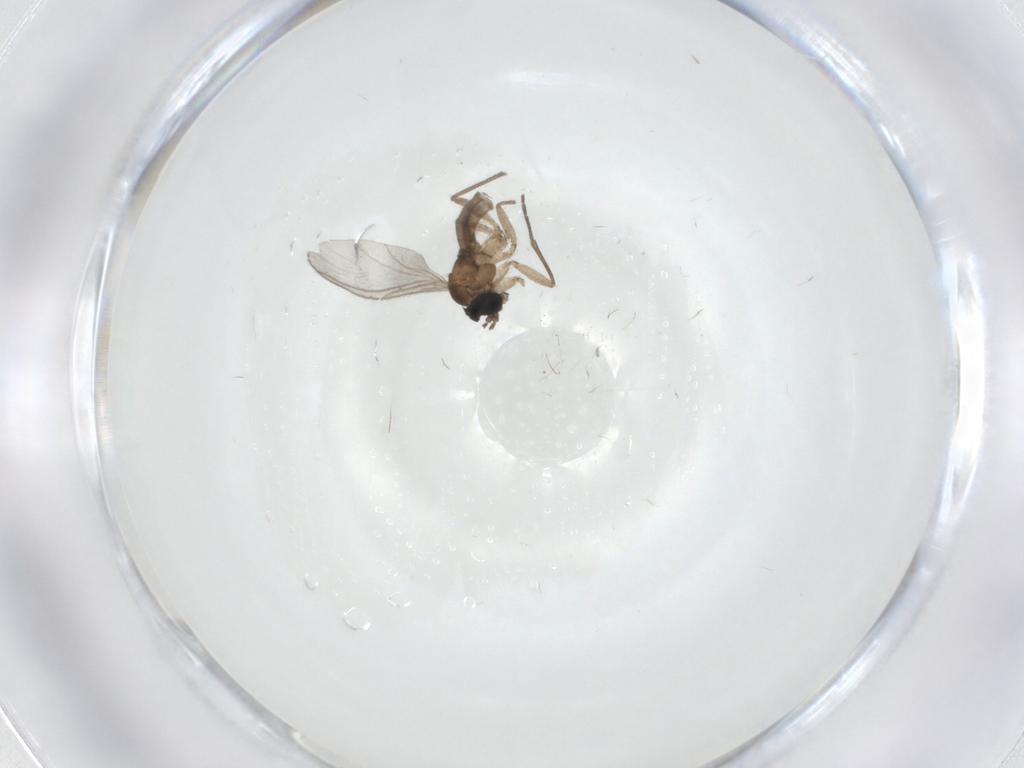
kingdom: Animalia
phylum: Arthropoda
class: Insecta
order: Diptera
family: Sciaridae
